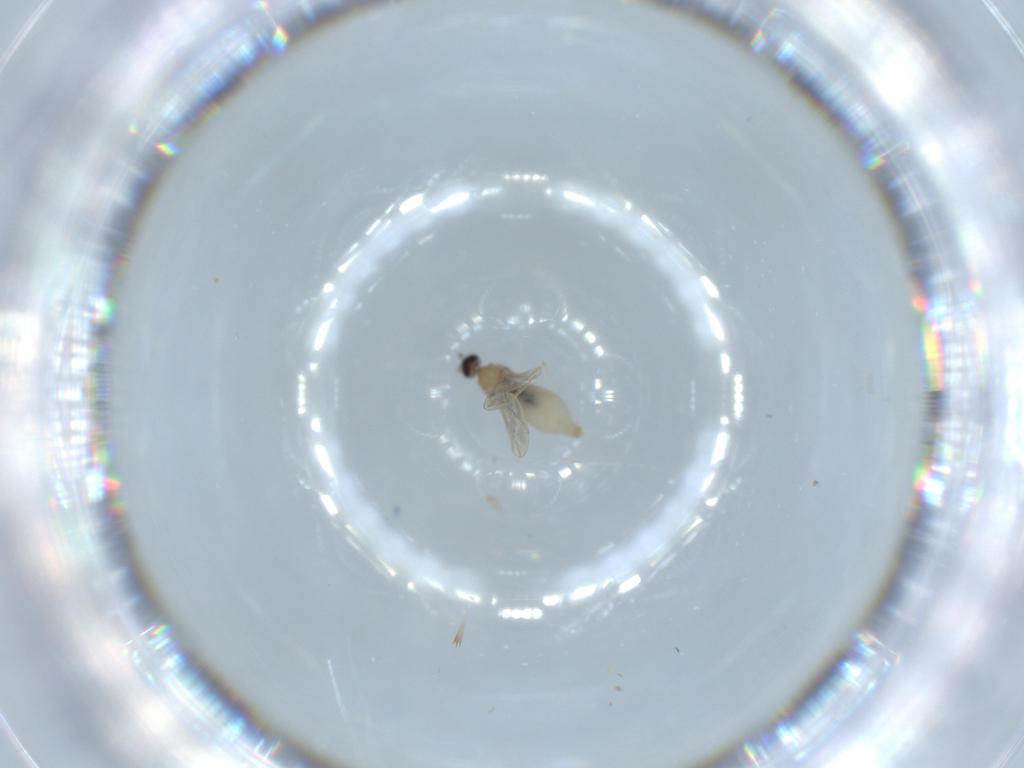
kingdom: Animalia
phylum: Arthropoda
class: Insecta
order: Diptera
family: Cecidomyiidae
